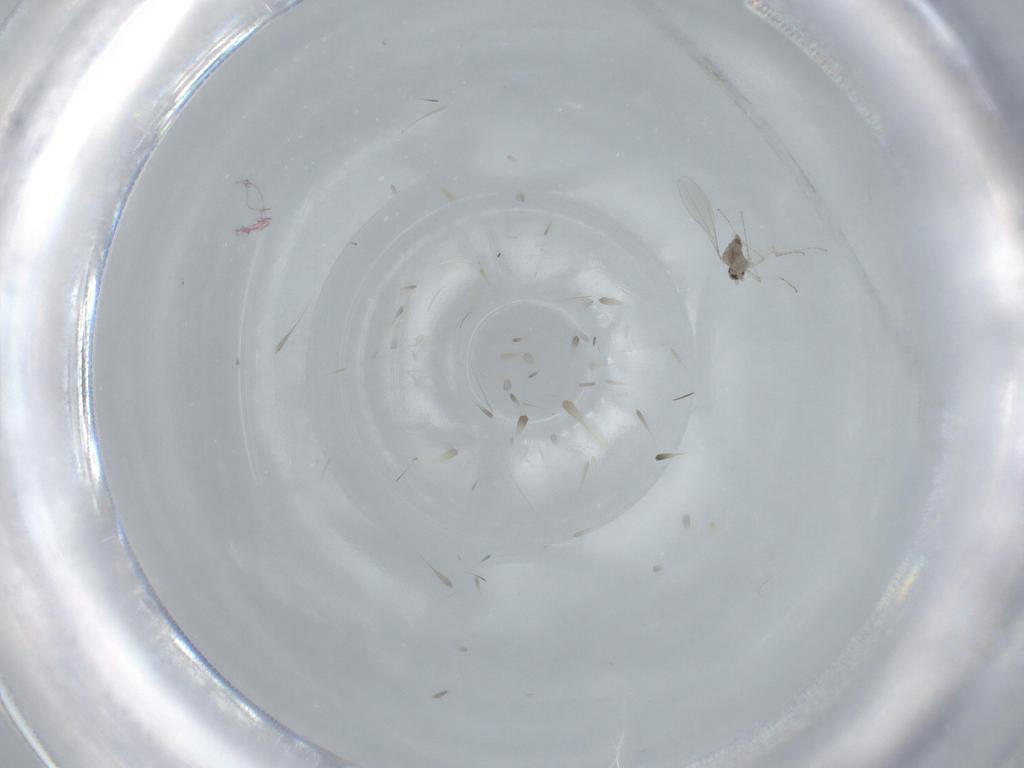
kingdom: Animalia
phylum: Arthropoda
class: Insecta
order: Diptera
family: Cecidomyiidae
